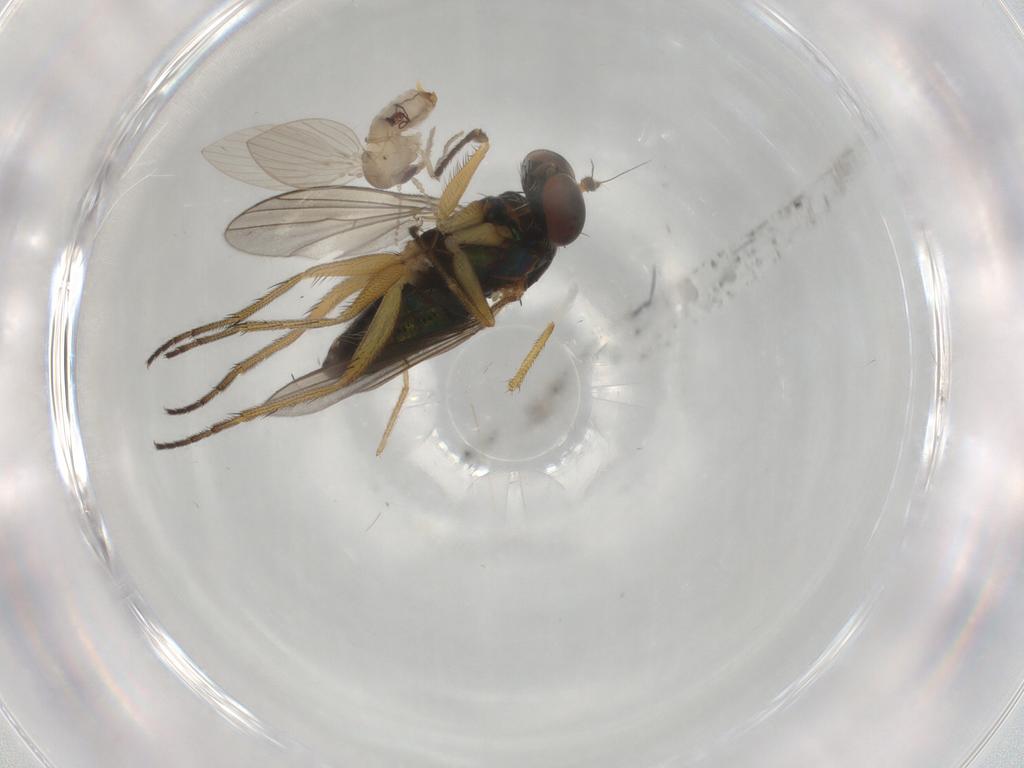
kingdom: Animalia
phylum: Arthropoda
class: Insecta
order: Diptera
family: Psychodidae
